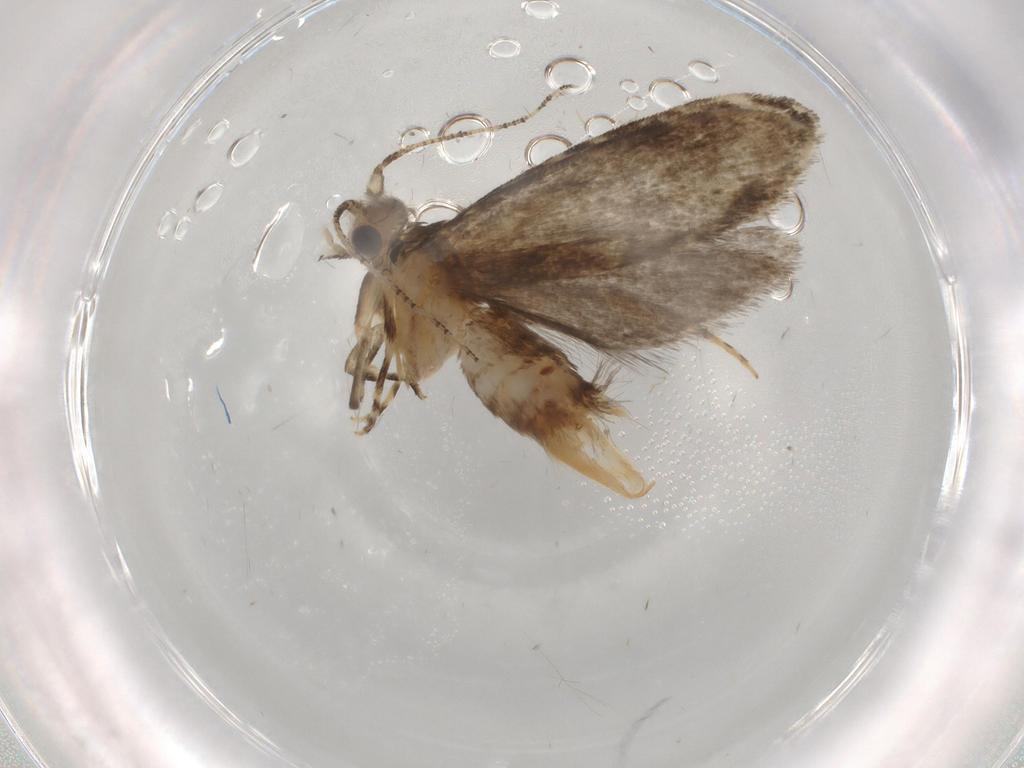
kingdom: Animalia
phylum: Arthropoda
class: Insecta
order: Lepidoptera
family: Tineidae
